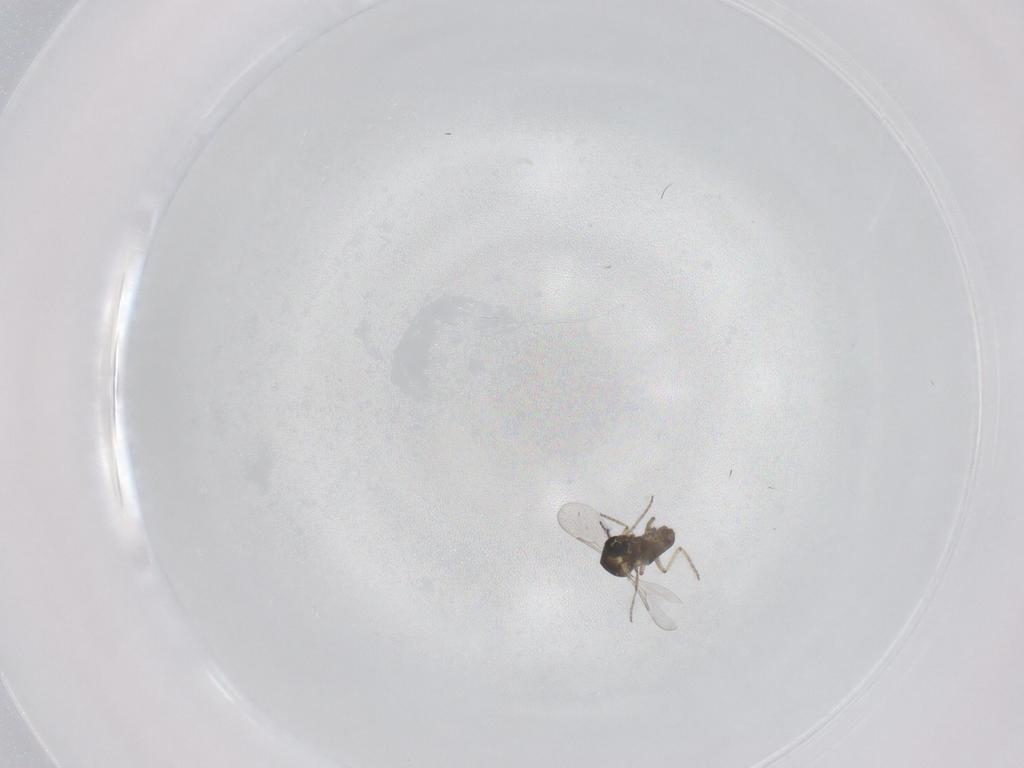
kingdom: Animalia
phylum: Arthropoda
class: Insecta
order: Diptera
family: Ceratopogonidae
